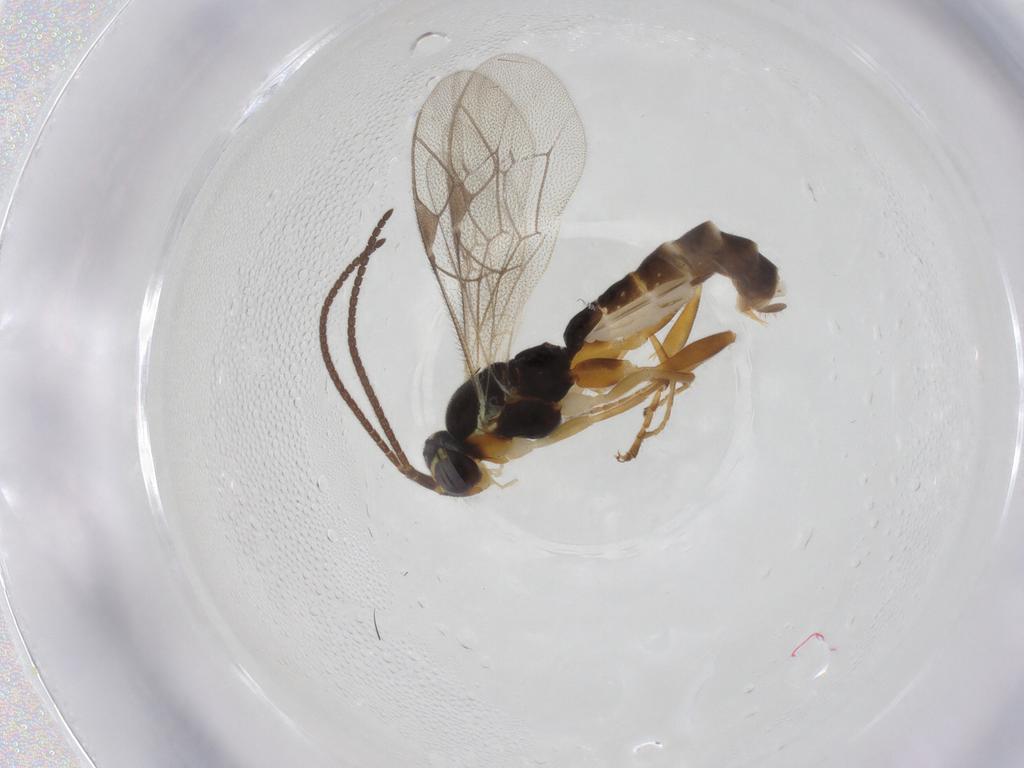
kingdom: Animalia
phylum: Arthropoda
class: Insecta
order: Hymenoptera
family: Ichneumonidae
